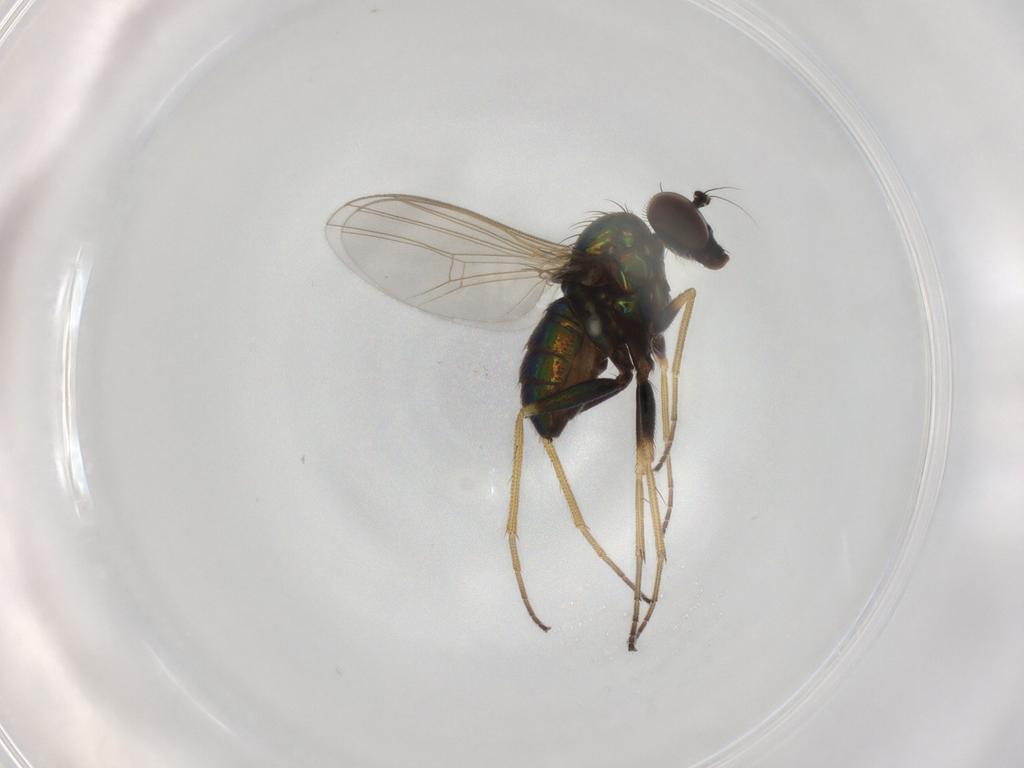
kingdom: Animalia
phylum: Arthropoda
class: Insecta
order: Diptera
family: Dolichopodidae
